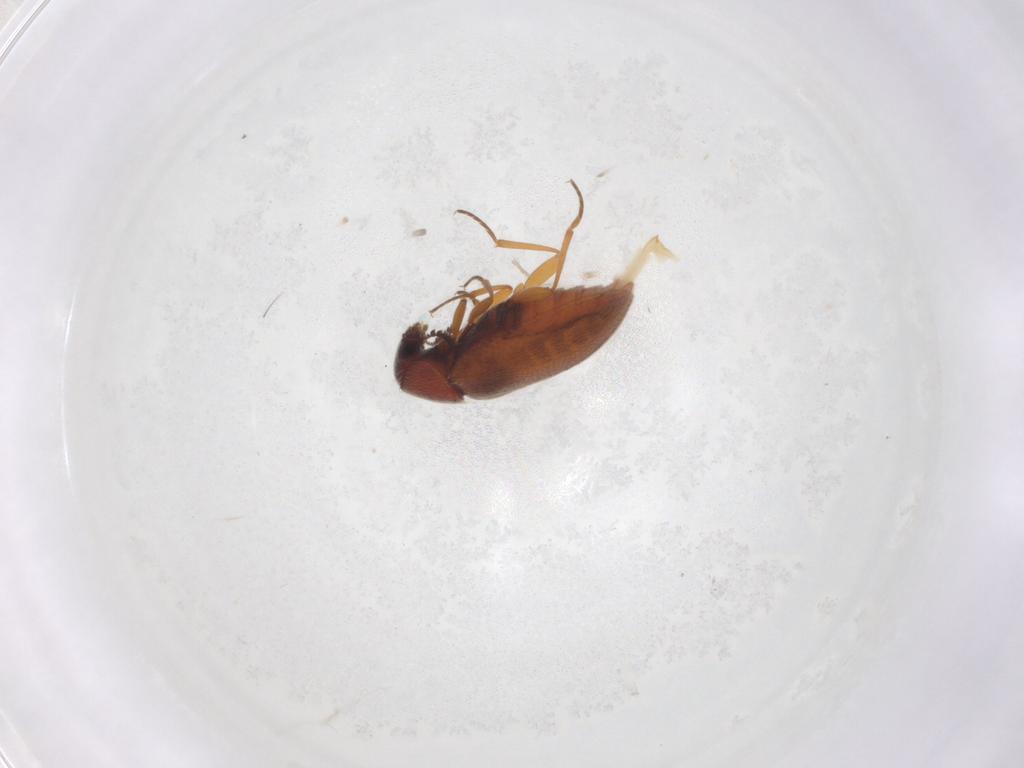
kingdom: Animalia
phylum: Arthropoda
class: Insecta
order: Coleoptera
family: Rhadalidae
